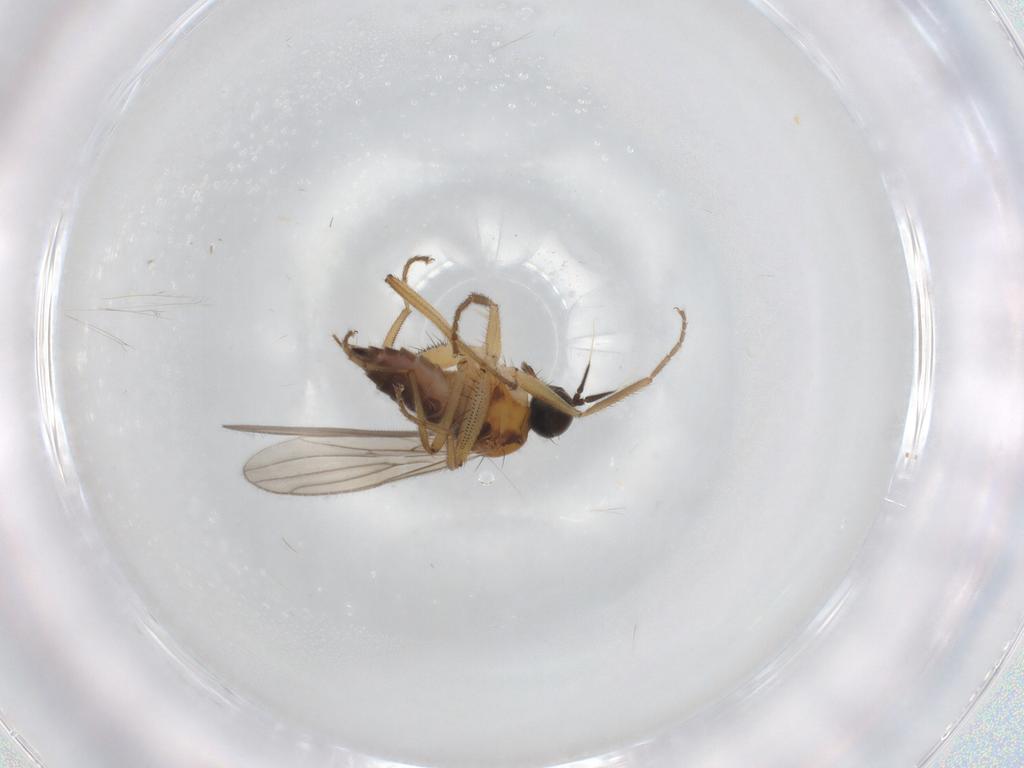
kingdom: Animalia
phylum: Arthropoda
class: Insecta
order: Diptera
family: Hybotidae
